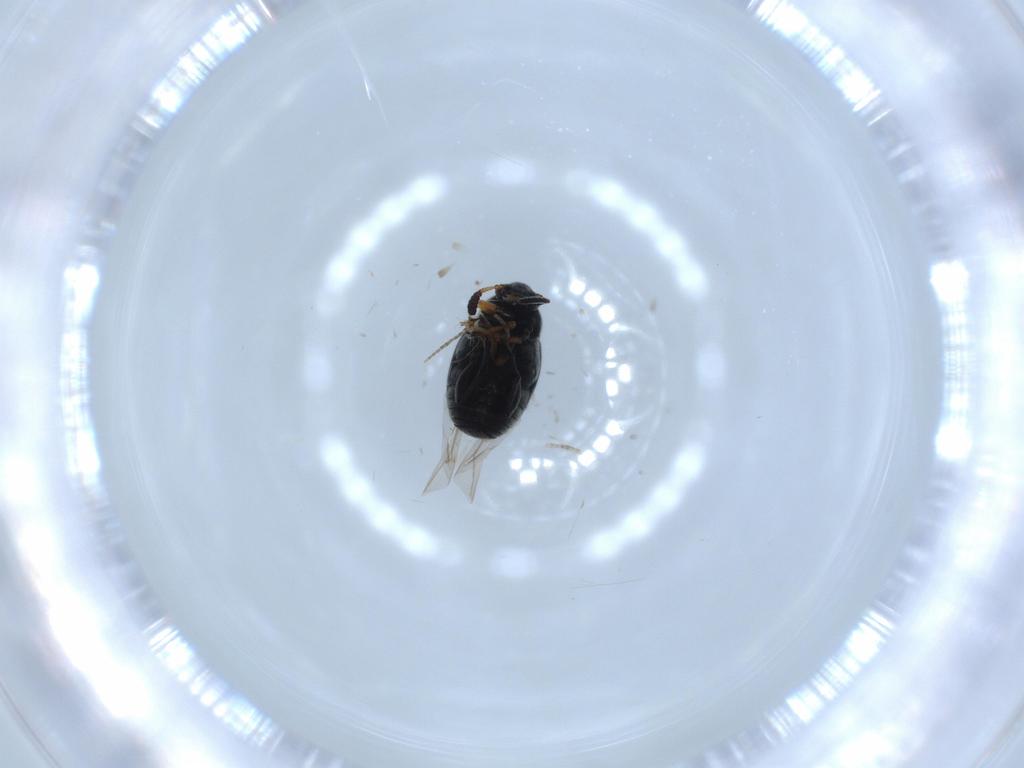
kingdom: Animalia
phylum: Arthropoda
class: Insecta
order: Coleoptera
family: Chrysomelidae
